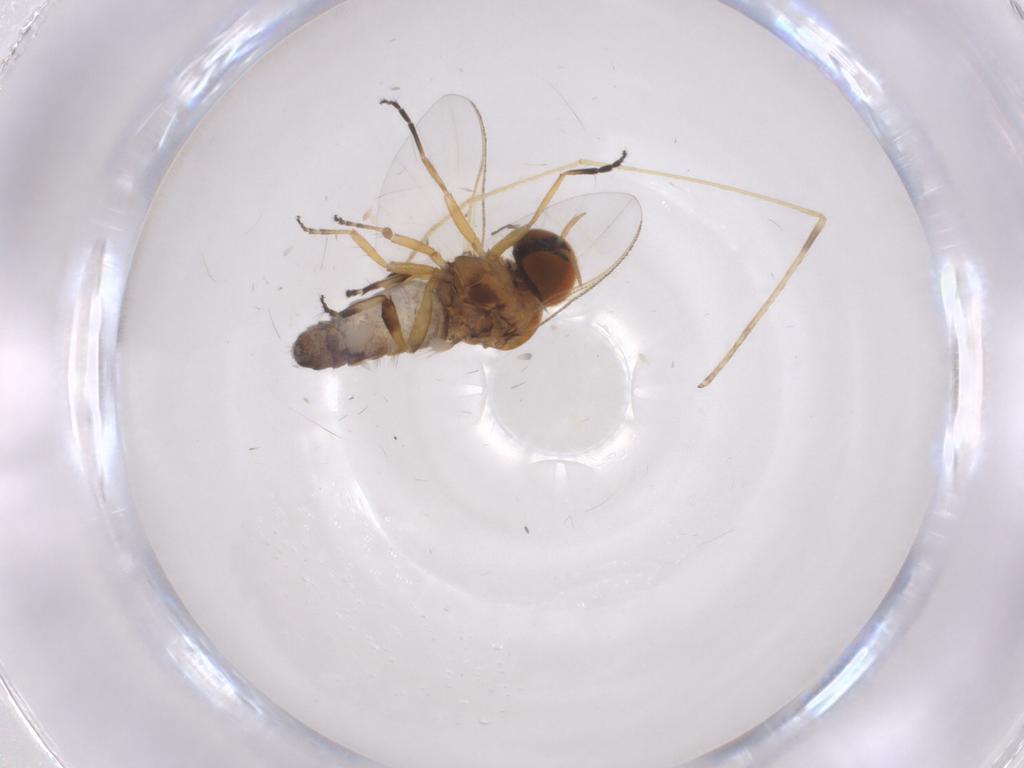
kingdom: Animalia
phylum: Arthropoda
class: Insecta
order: Diptera
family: Simuliidae
